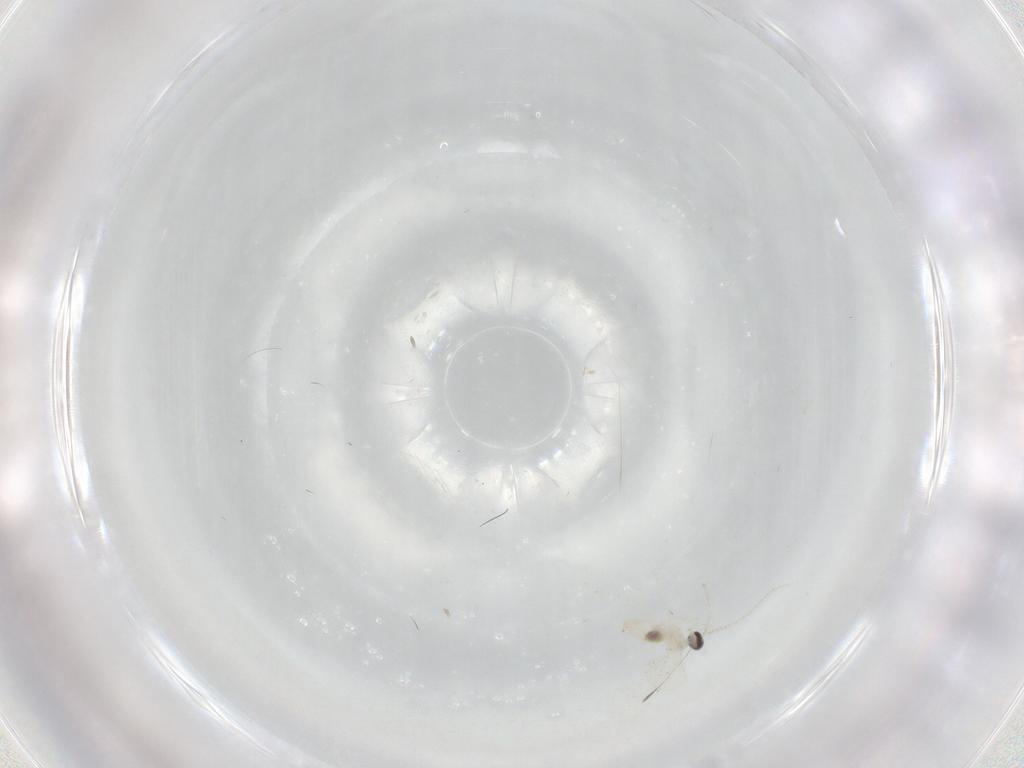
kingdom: Animalia
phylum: Arthropoda
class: Insecta
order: Diptera
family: Cecidomyiidae
